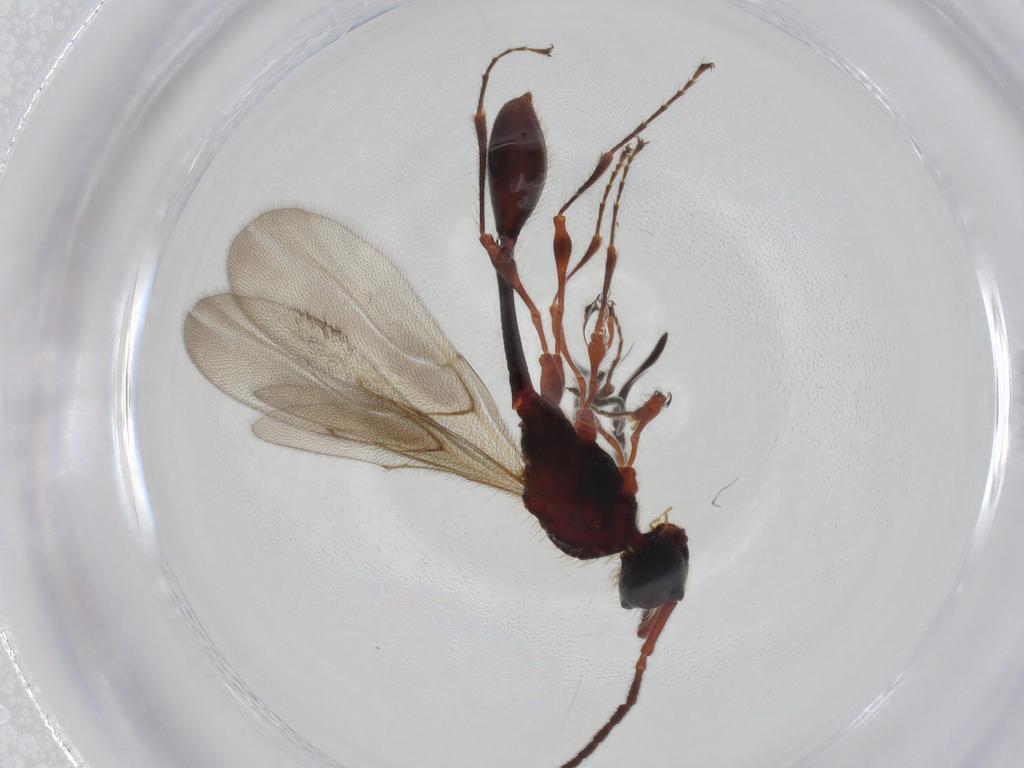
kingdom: Animalia
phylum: Arthropoda
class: Insecta
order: Hymenoptera
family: Diapriidae
